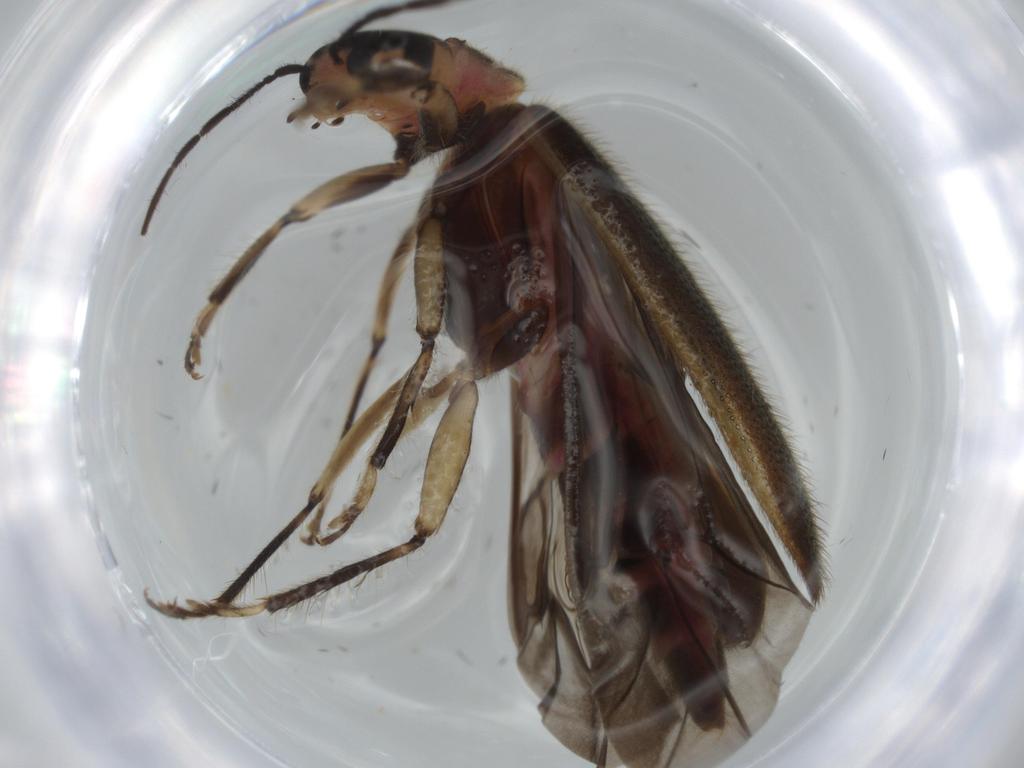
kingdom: Animalia
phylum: Arthropoda
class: Insecta
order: Coleoptera
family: Cleridae
